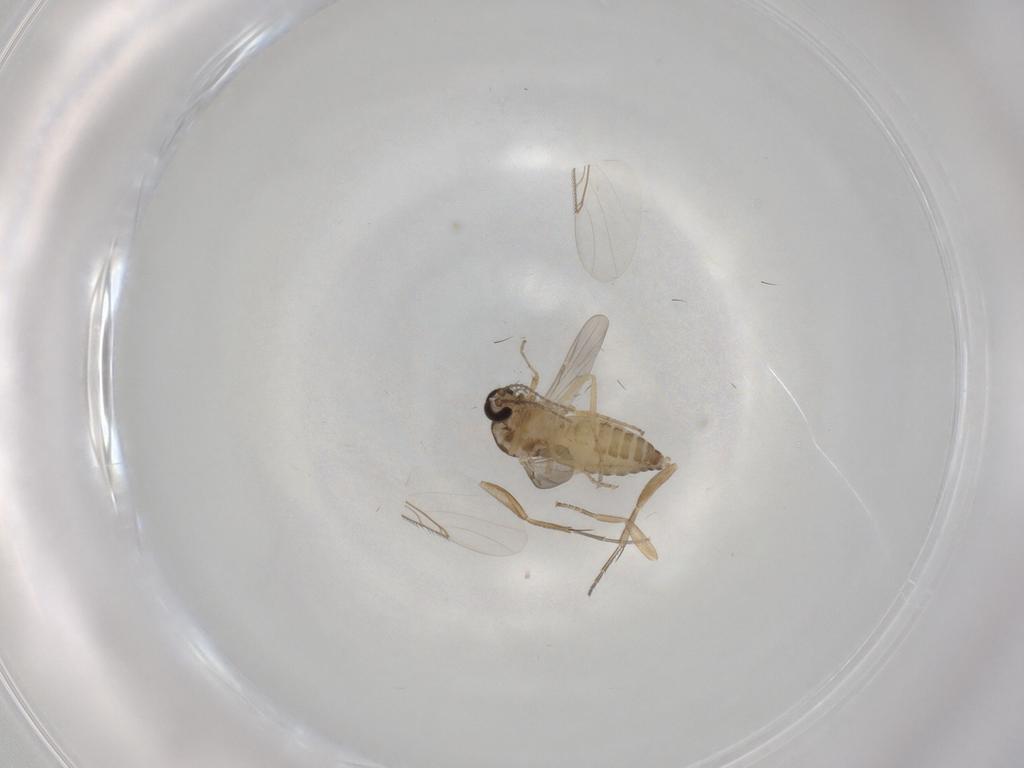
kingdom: Animalia
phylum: Arthropoda
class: Insecta
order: Diptera
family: Ceratopogonidae
